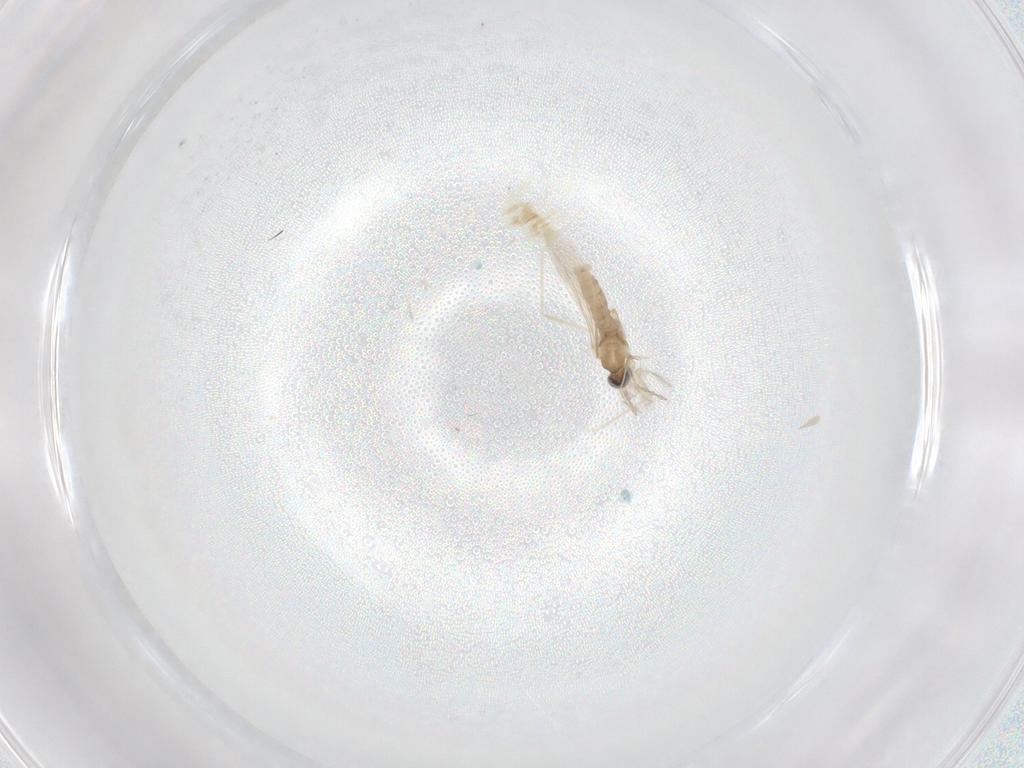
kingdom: Animalia
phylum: Arthropoda
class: Insecta
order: Diptera
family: Cecidomyiidae
